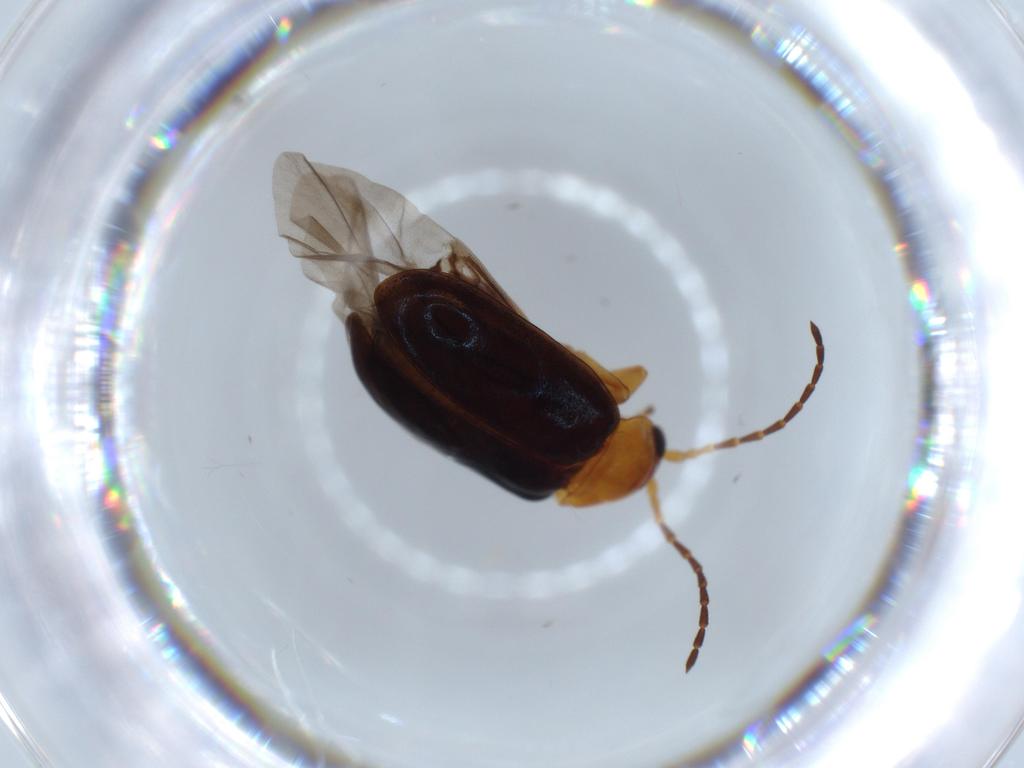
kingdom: Animalia
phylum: Arthropoda
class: Insecta
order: Coleoptera
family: Chrysomelidae
